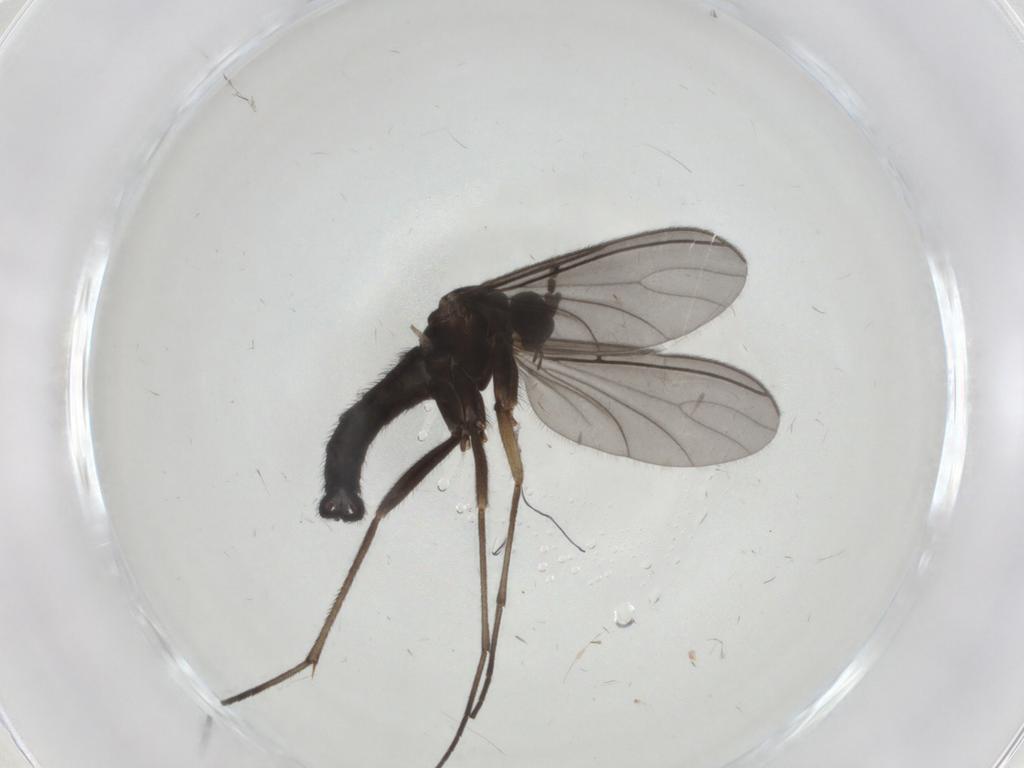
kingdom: Animalia
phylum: Arthropoda
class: Insecta
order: Diptera
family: Sciaridae
